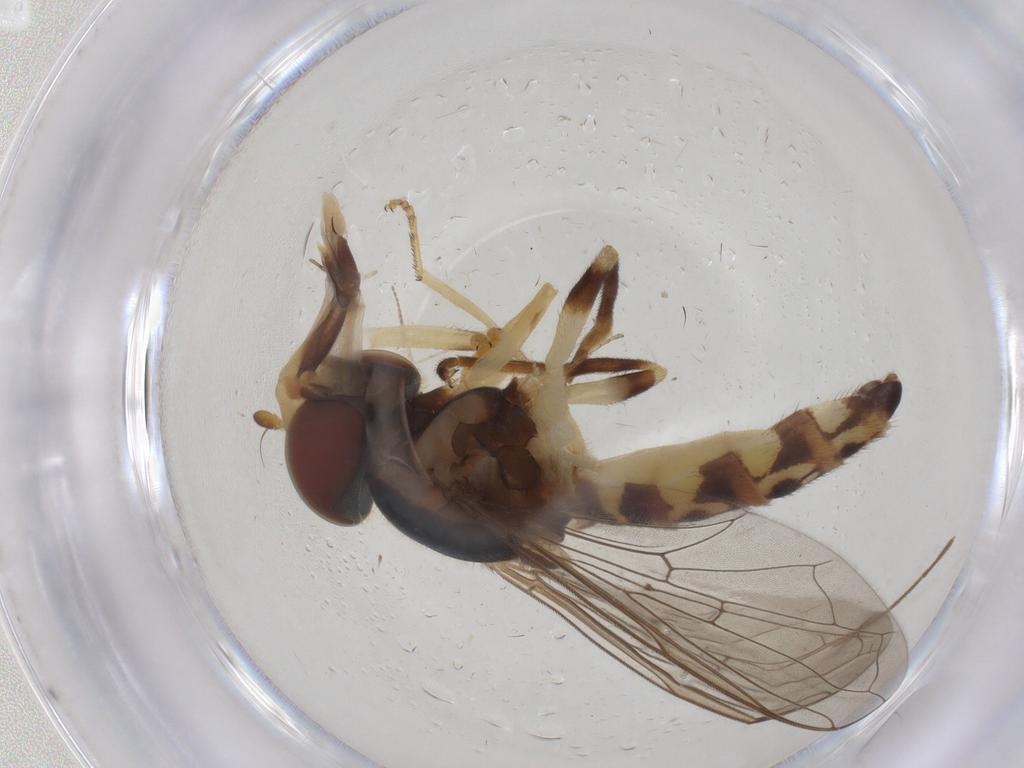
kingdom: Animalia
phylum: Arthropoda
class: Insecta
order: Diptera
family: Syrphidae
